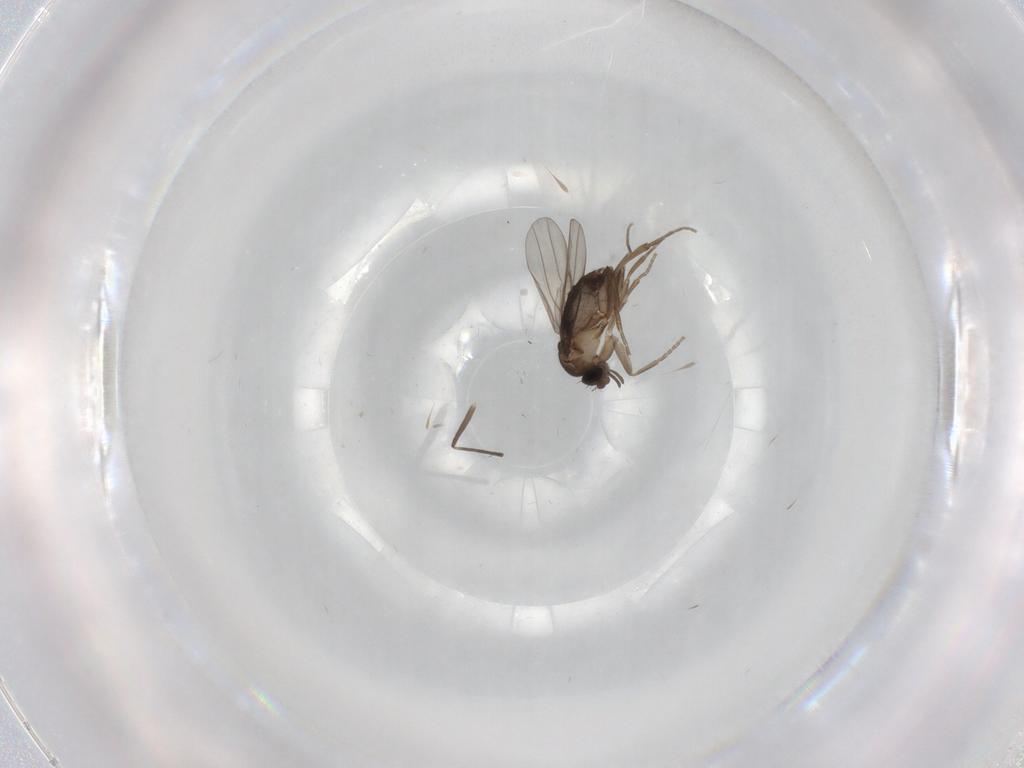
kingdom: Animalia
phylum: Arthropoda
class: Insecta
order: Diptera
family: Chironomidae
